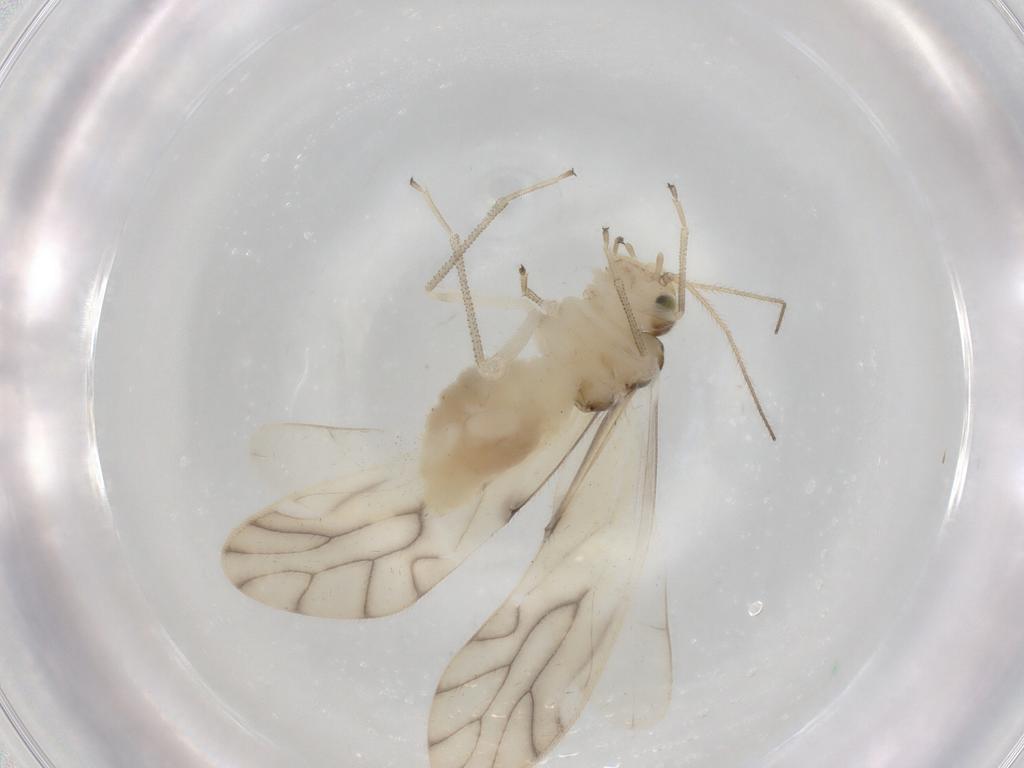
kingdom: Animalia
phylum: Arthropoda
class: Insecta
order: Psocodea
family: Caeciliusidae
